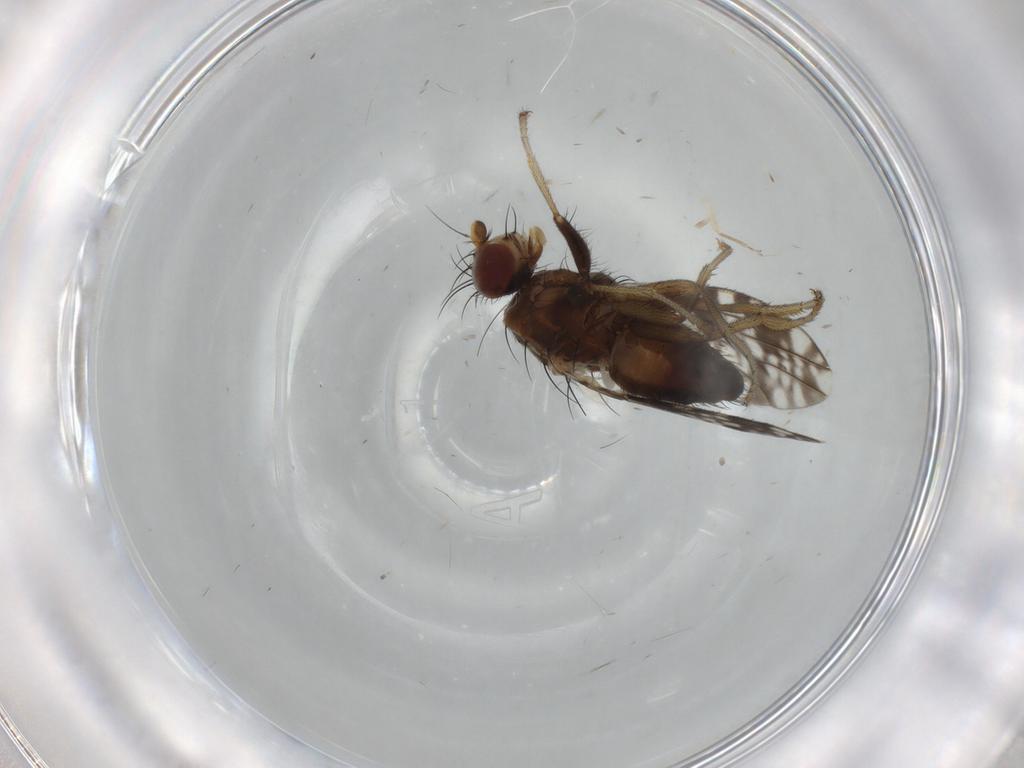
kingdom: Animalia
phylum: Arthropoda
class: Insecta
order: Diptera
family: Tephritidae
